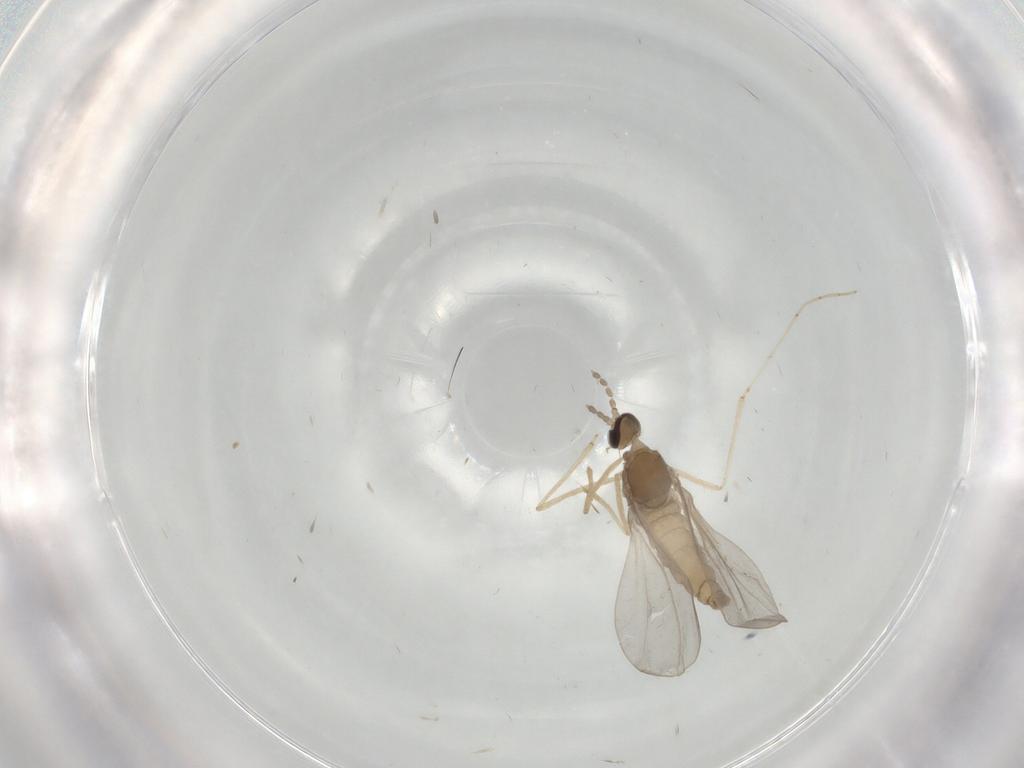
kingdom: Animalia
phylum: Arthropoda
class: Insecta
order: Diptera
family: Cecidomyiidae
